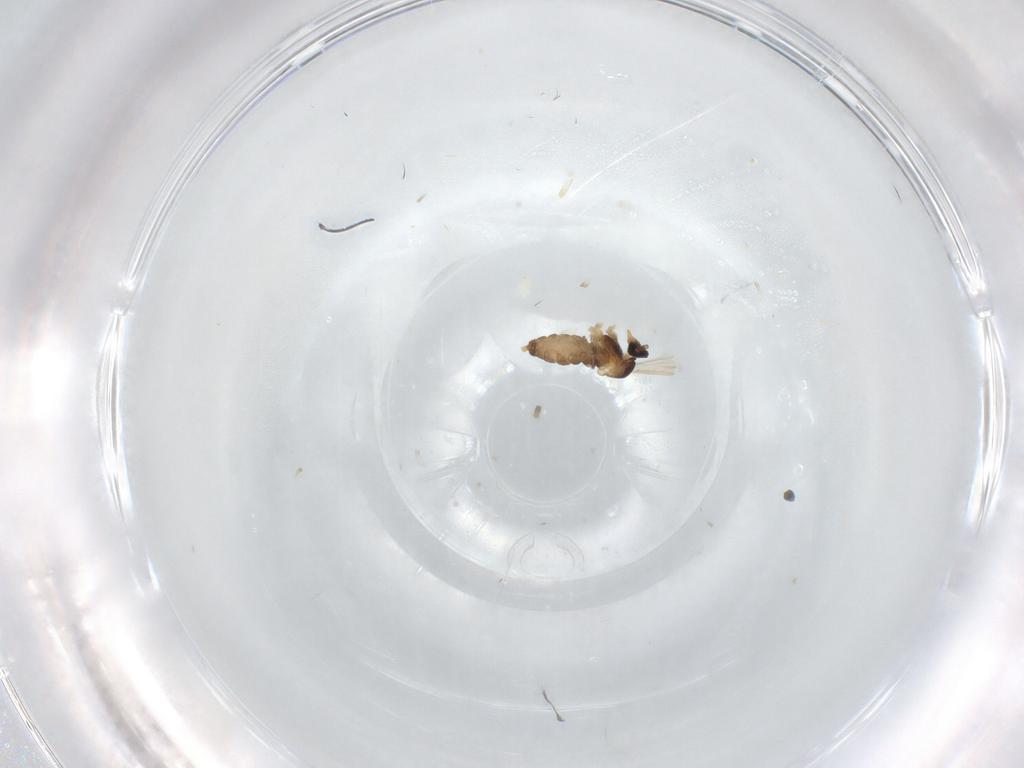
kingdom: Animalia
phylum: Arthropoda
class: Insecta
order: Diptera
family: Cecidomyiidae
